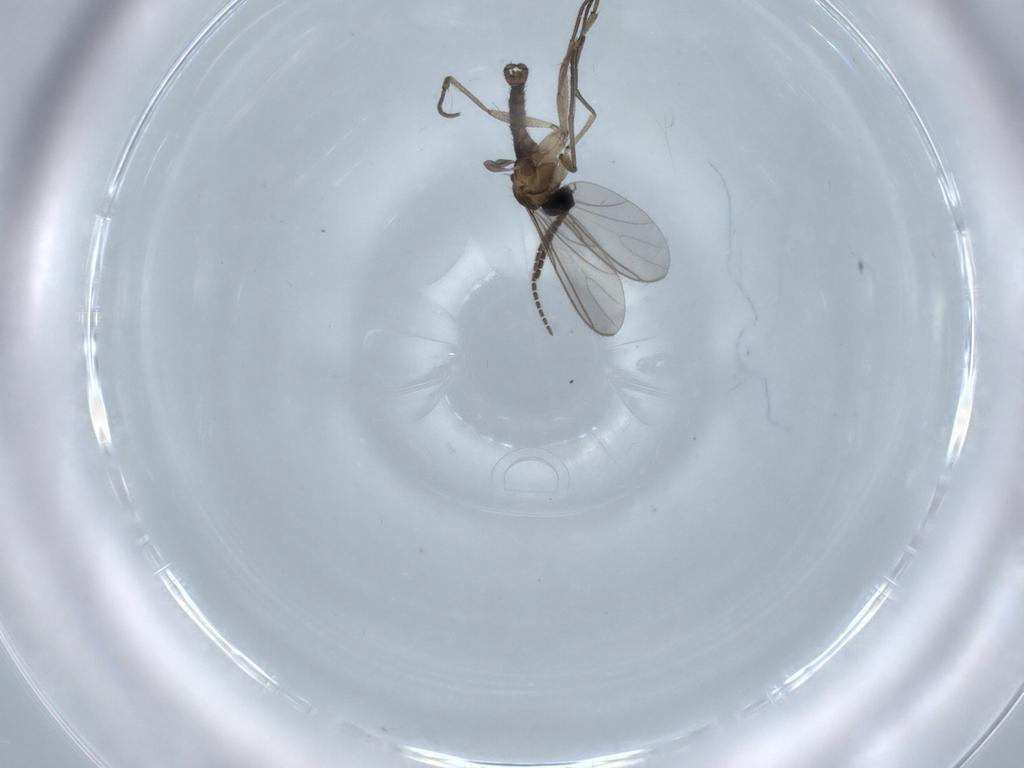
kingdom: Animalia
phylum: Arthropoda
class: Insecta
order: Diptera
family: Sciaridae
